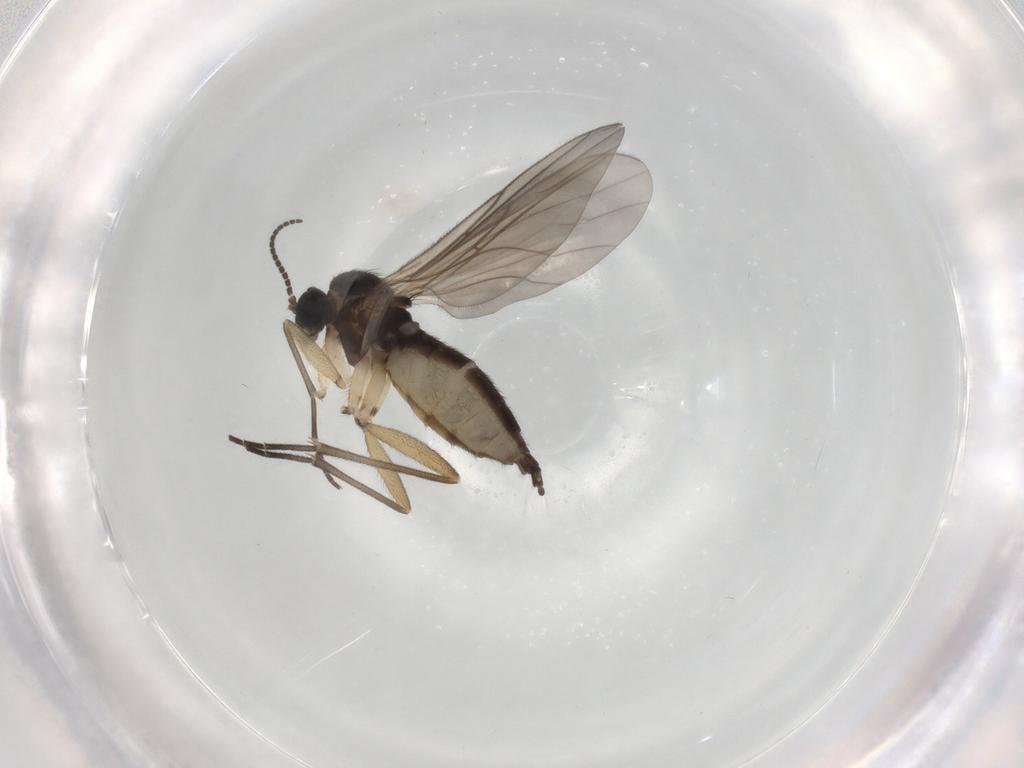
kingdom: Animalia
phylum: Arthropoda
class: Insecta
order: Diptera
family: Sciaridae
